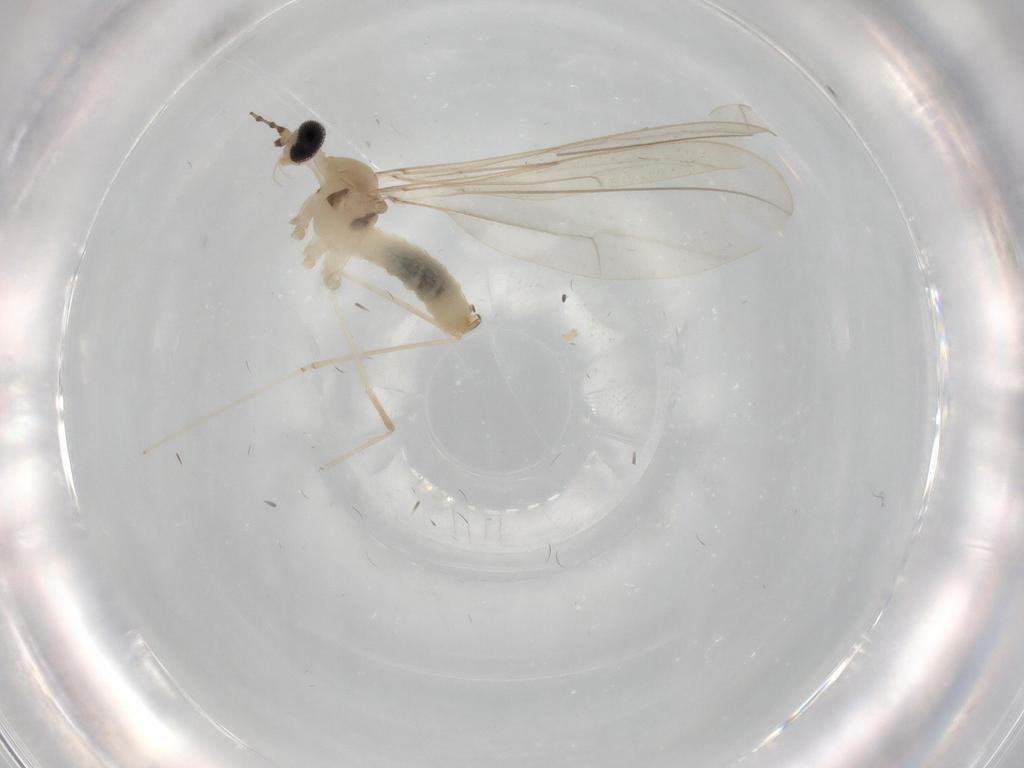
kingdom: Animalia
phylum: Arthropoda
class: Insecta
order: Diptera
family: Cecidomyiidae
